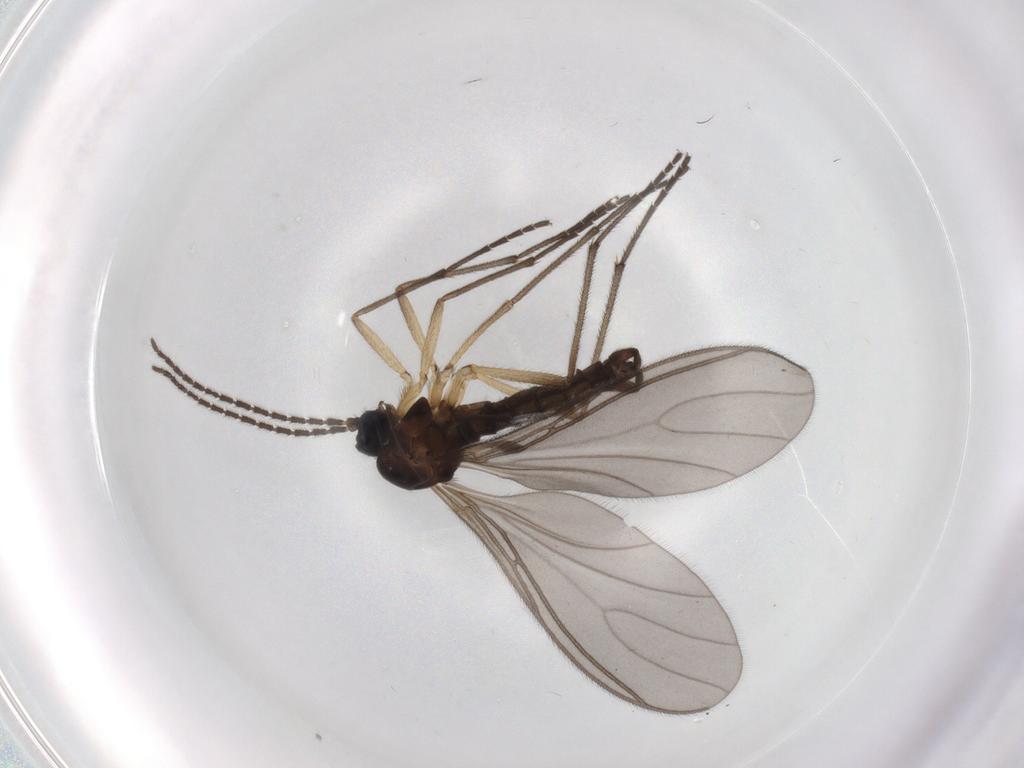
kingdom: Animalia
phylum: Arthropoda
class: Insecta
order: Diptera
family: Sciaridae
